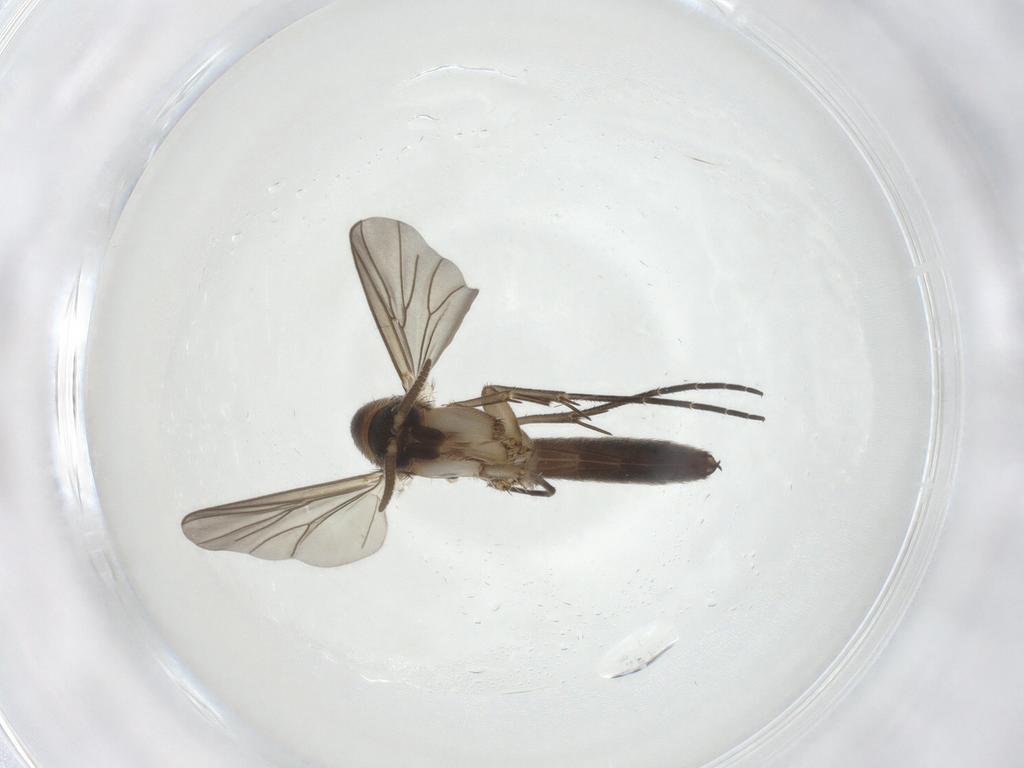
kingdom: Animalia
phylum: Arthropoda
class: Insecta
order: Diptera
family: Mycetophilidae
